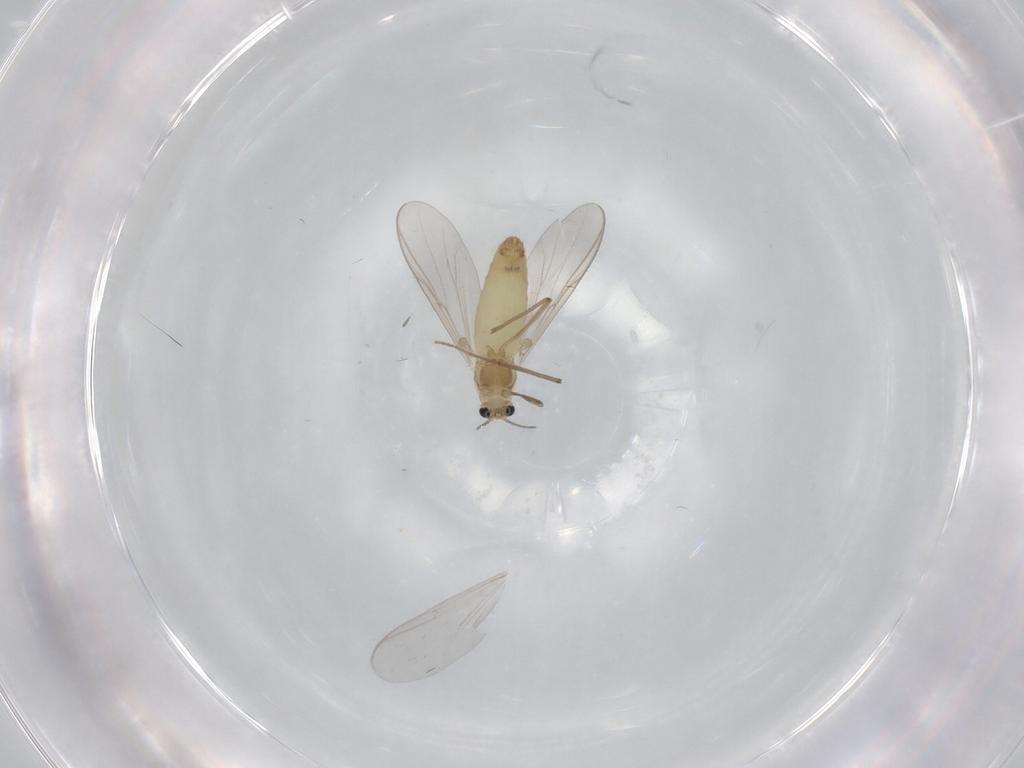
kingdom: Animalia
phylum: Arthropoda
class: Insecta
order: Diptera
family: Chironomidae
